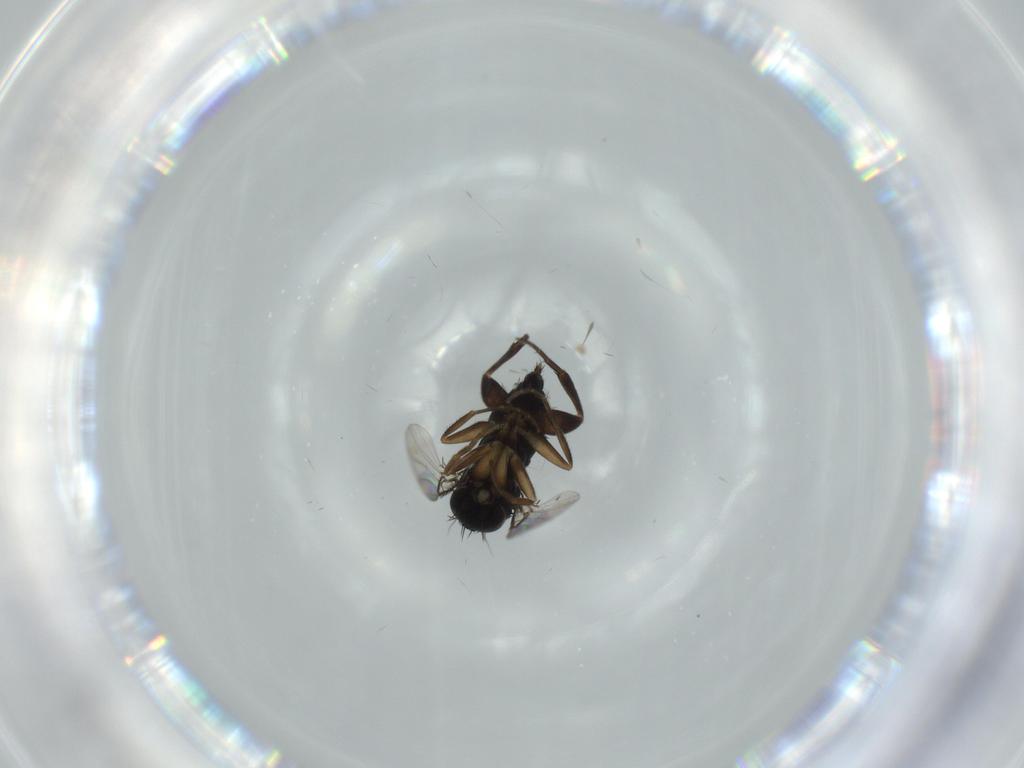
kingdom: Animalia
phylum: Arthropoda
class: Insecta
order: Diptera
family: Phoridae
